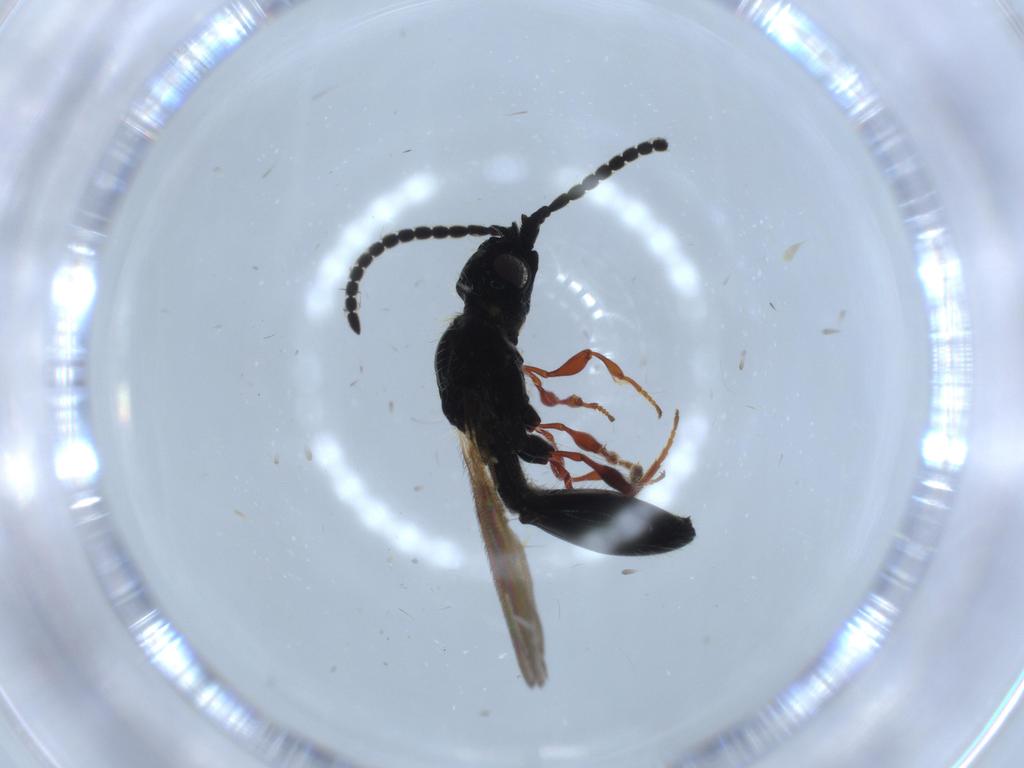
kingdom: Animalia
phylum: Arthropoda
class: Insecta
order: Hymenoptera
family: Diapriidae
